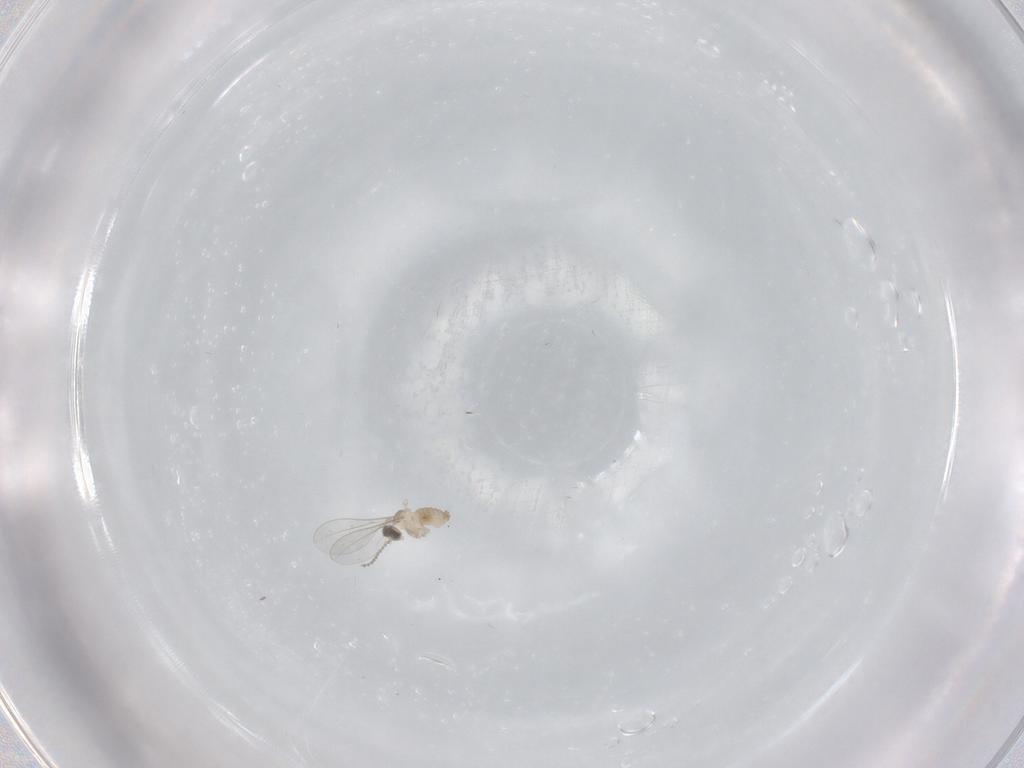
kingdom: Animalia
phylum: Arthropoda
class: Insecta
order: Diptera
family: Cecidomyiidae
